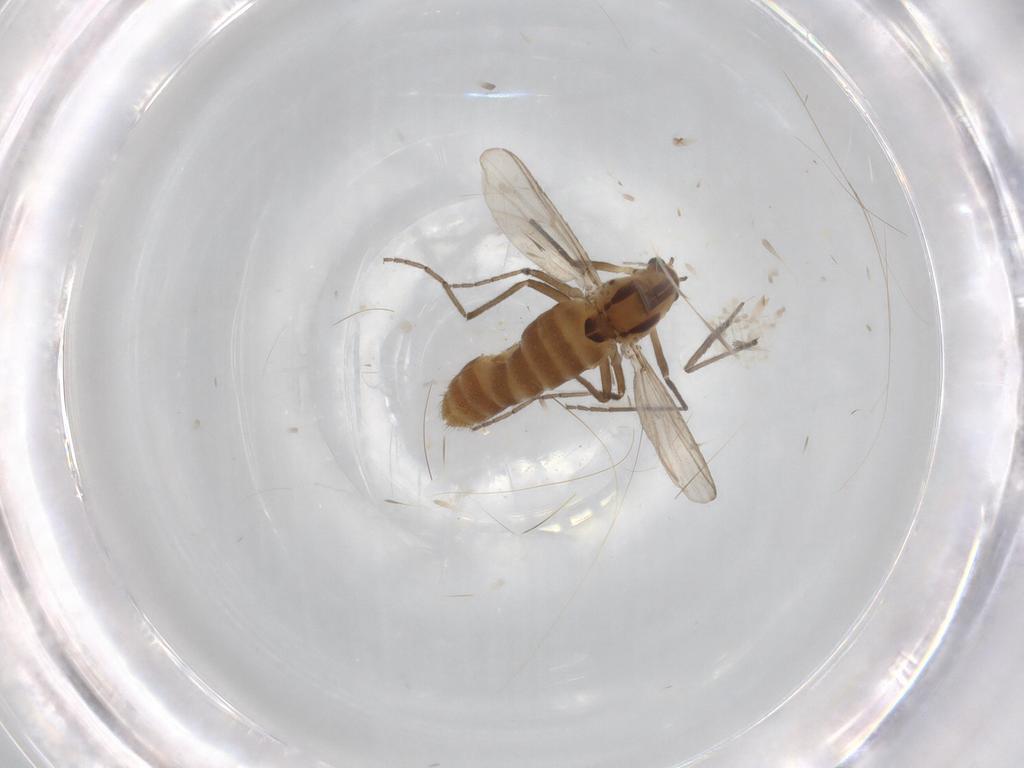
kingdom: Animalia
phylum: Arthropoda
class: Insecta
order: Diptera
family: Chironomidae
